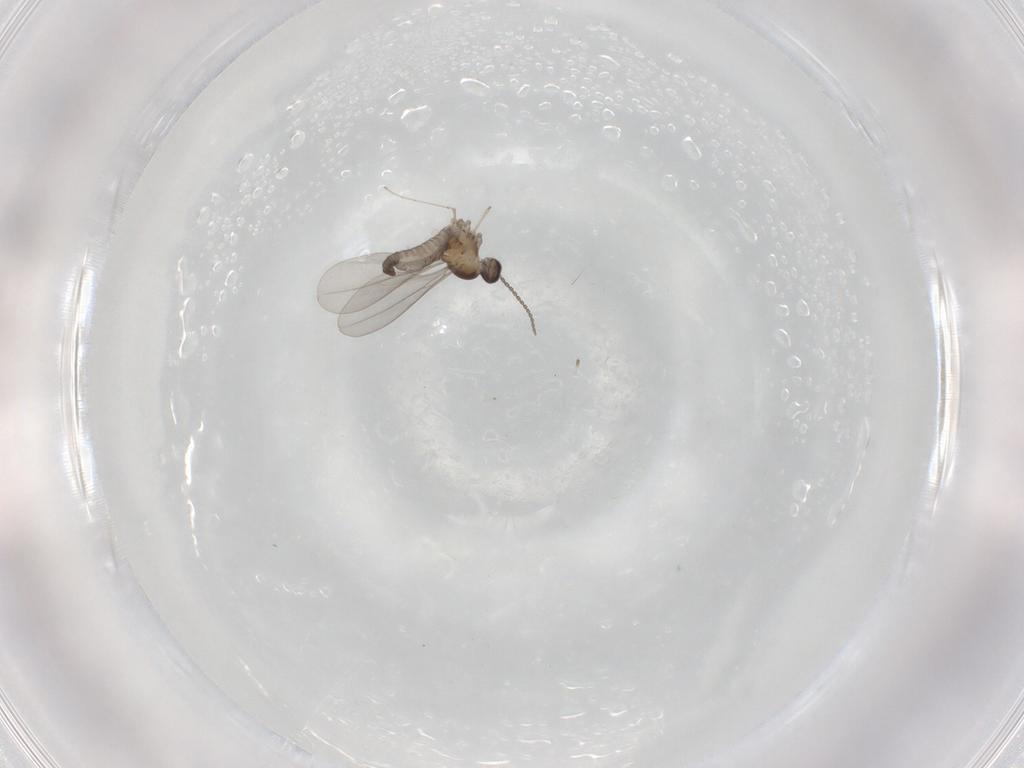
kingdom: Animalia
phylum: Arthropoda
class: Insecta
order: Diptera
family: Cecidomyiidae
